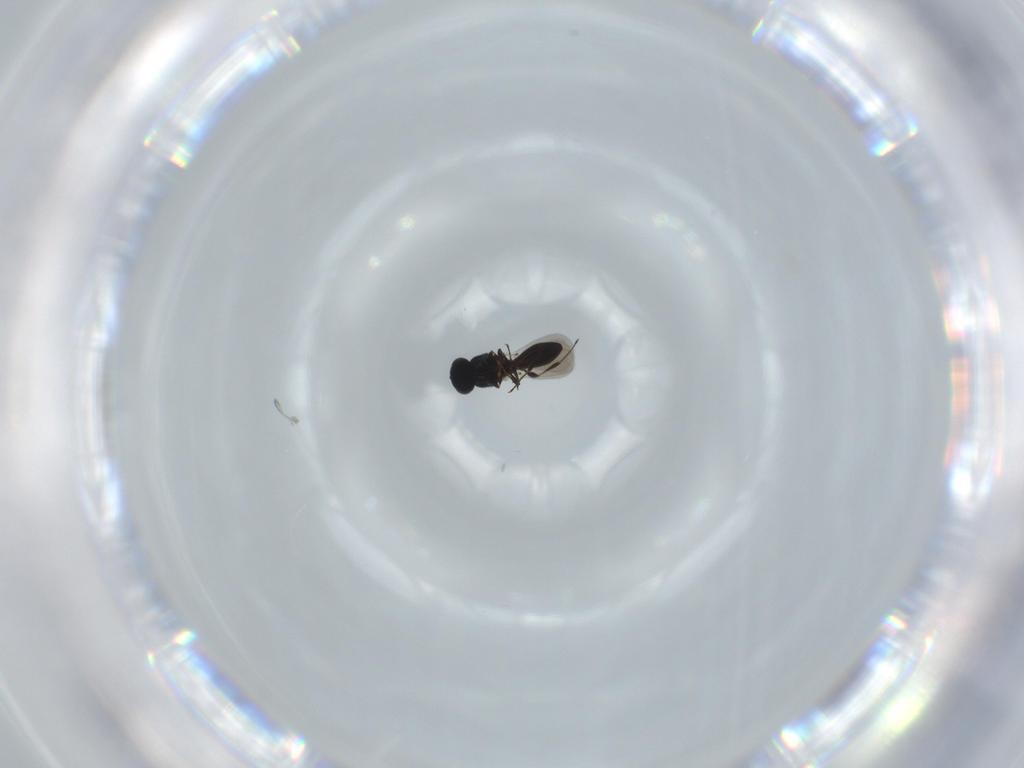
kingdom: Animalia
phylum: Arthropoda
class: Insecta
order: Hymenoptera
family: Platygastridae
